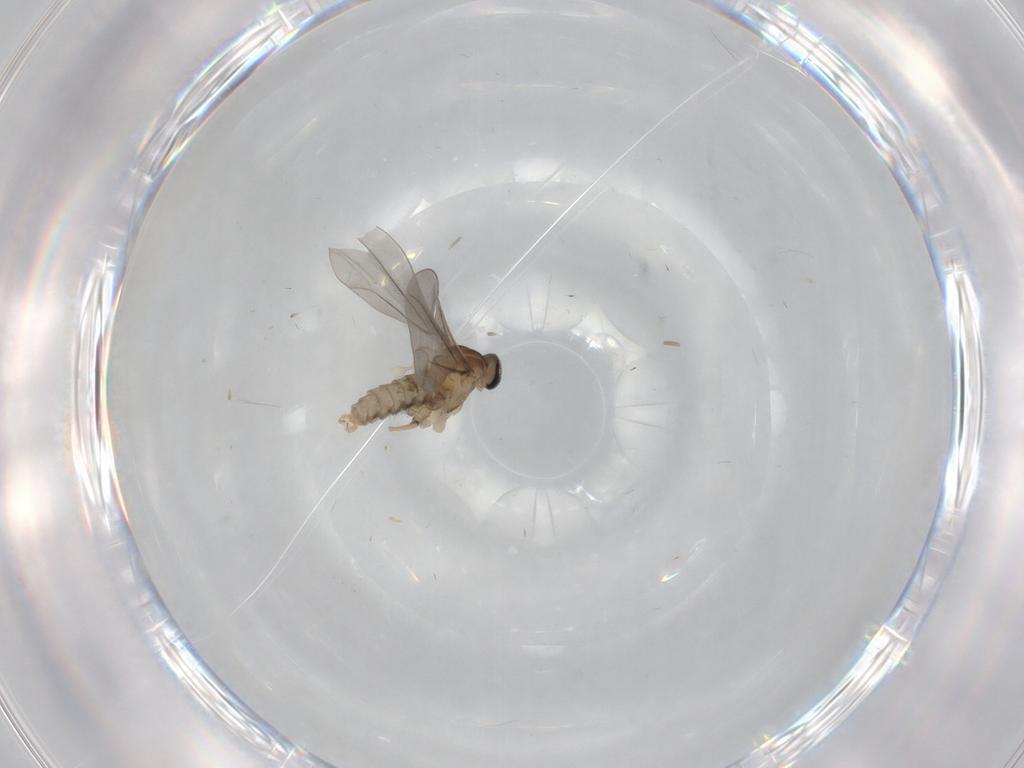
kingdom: Animalia
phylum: Arthropoda
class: Insecta
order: Diptera
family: Cecidomyiidae
